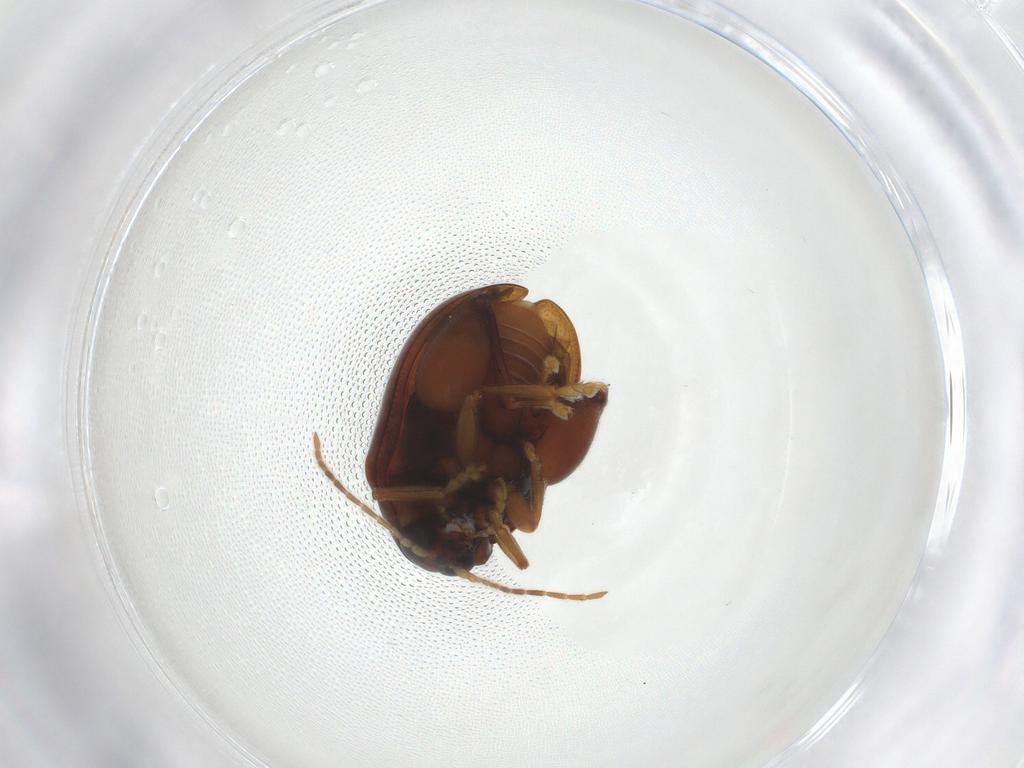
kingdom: Animalia
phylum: Arthropoda
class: Insecta
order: Coleoptera
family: Chrysomelidae
